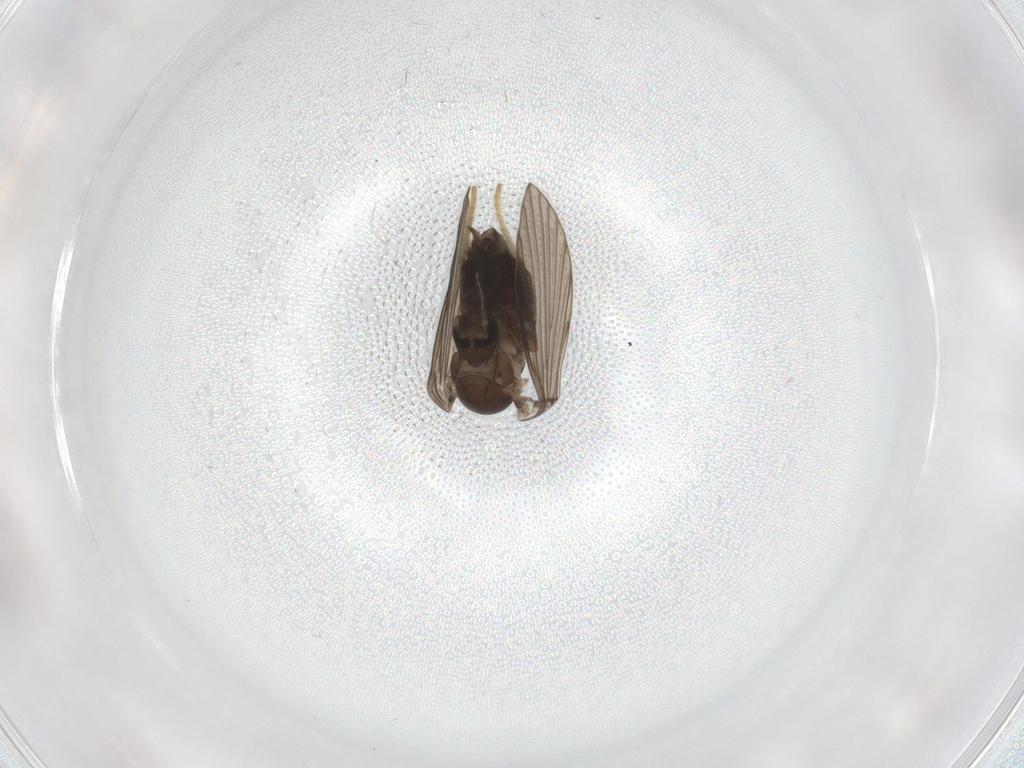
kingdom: Animalia
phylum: Arthropoda
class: Insecta
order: Diptera
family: Psychodidae
